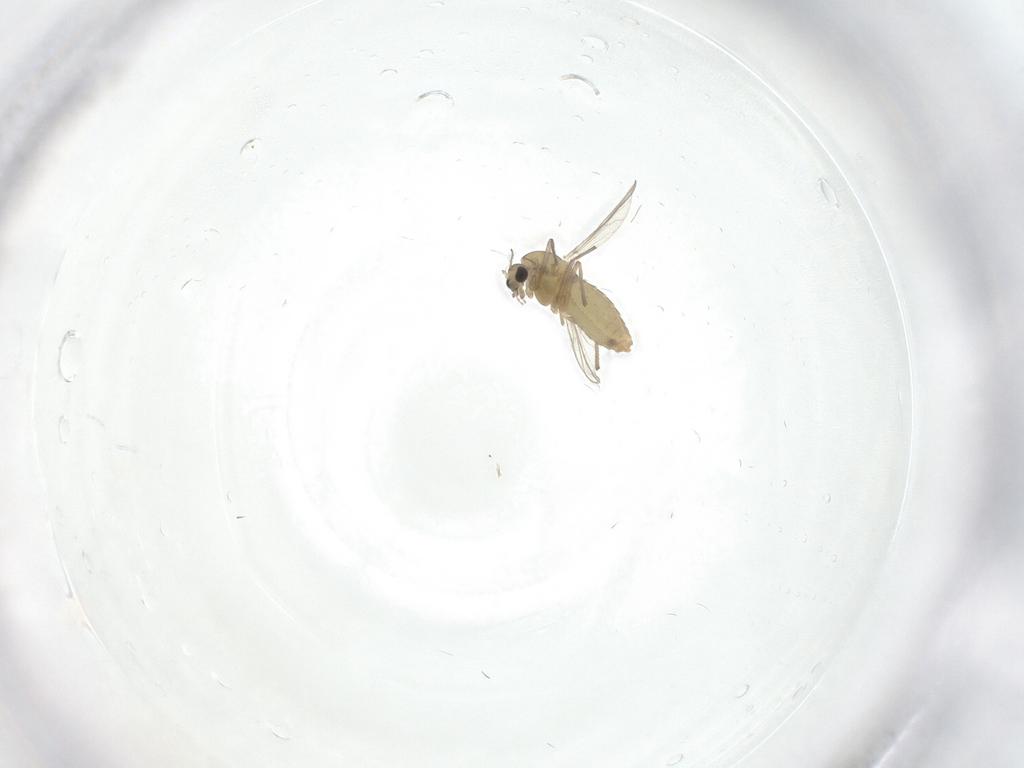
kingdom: Animalia
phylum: Arthropoda
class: Insecta
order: Diptera
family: Cecidomyiidae
